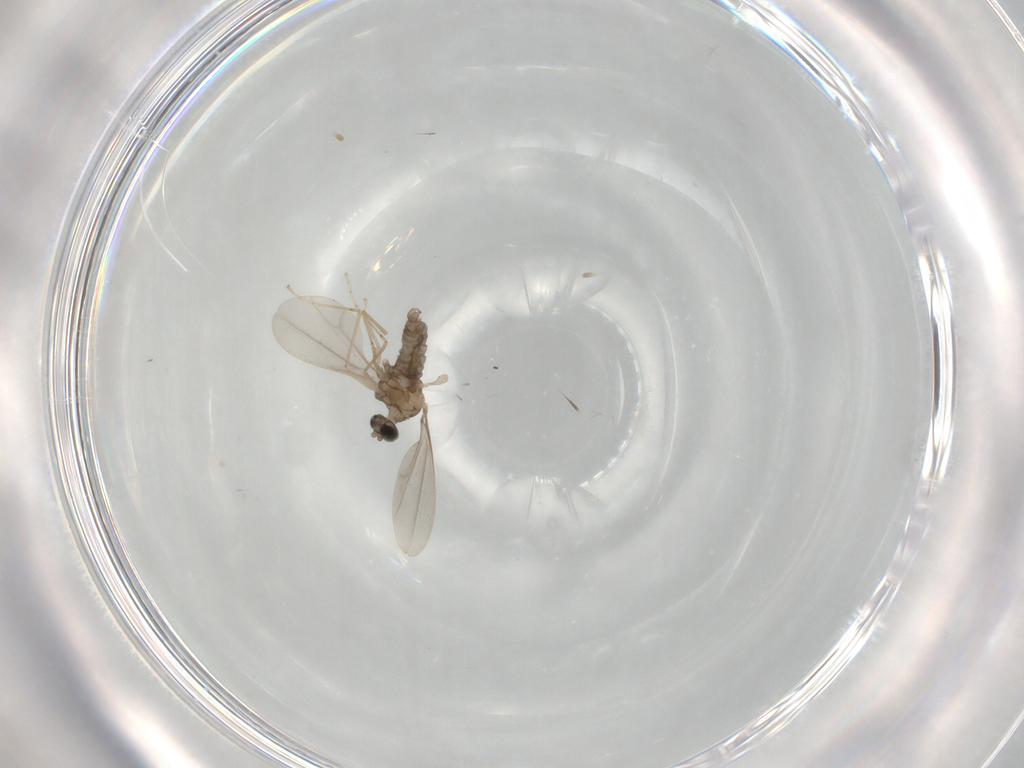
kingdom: Animalia
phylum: Arthropoda
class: Insecta
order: Diptera
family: Cecidomyiidae
